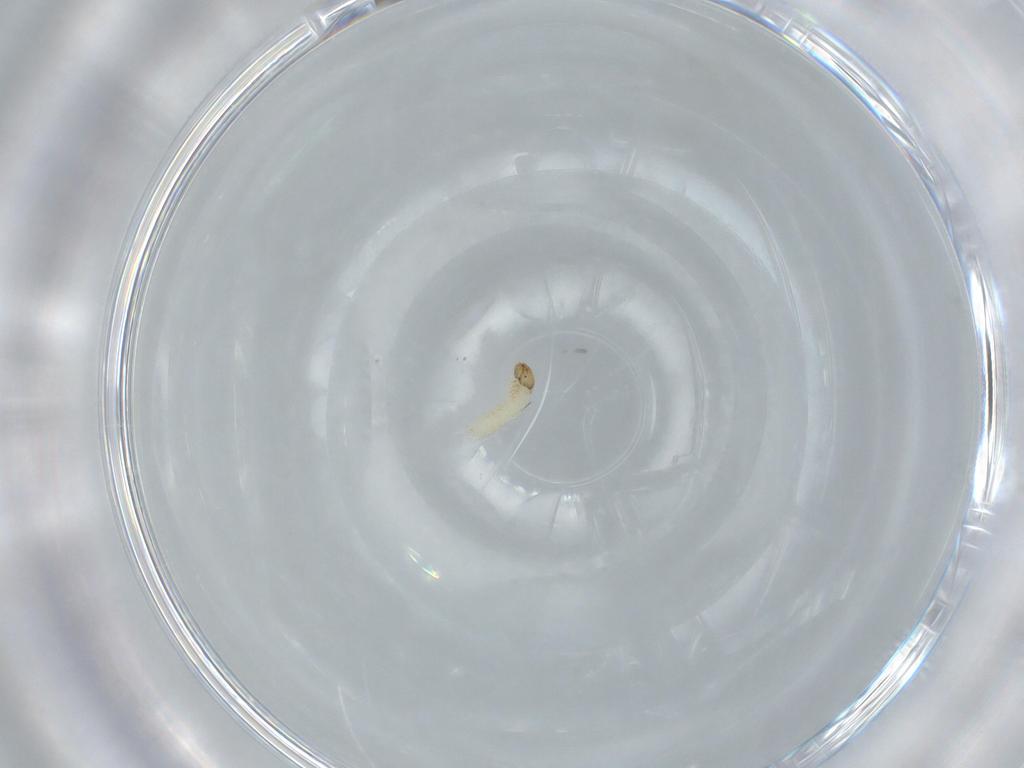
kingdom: Animalia
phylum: Arthropoda
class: Insecta
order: Lepidoptera
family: Tineidae
